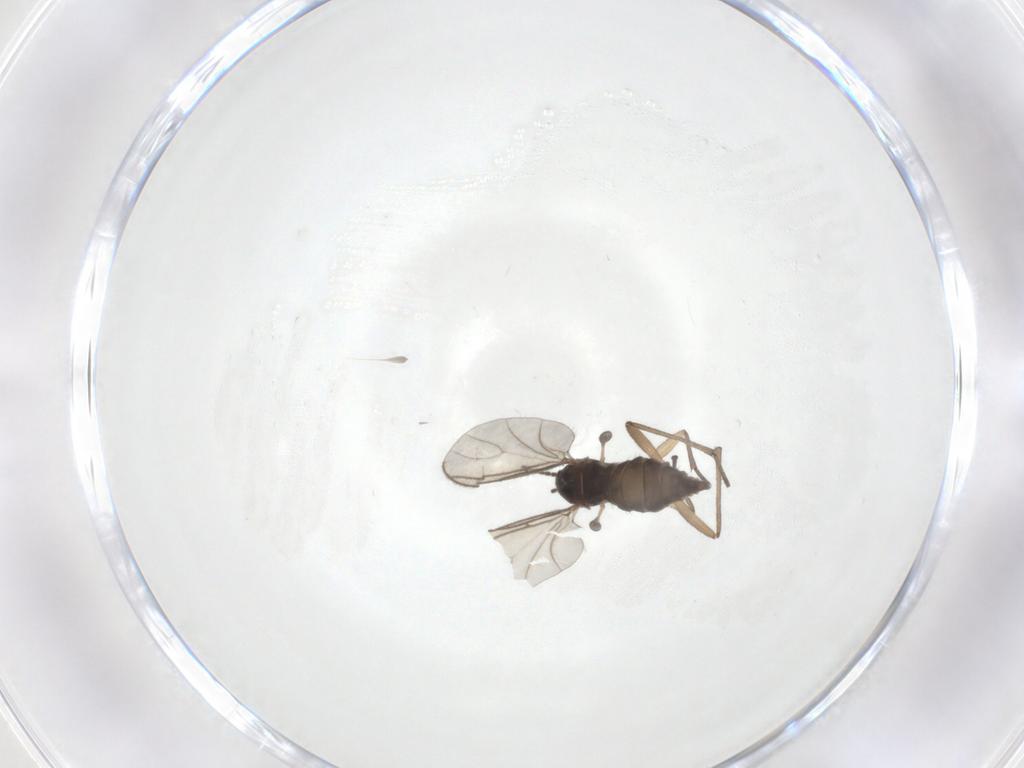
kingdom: Animalia
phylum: Arthropoda
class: Insecta
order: Diptera
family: Sciaridae
